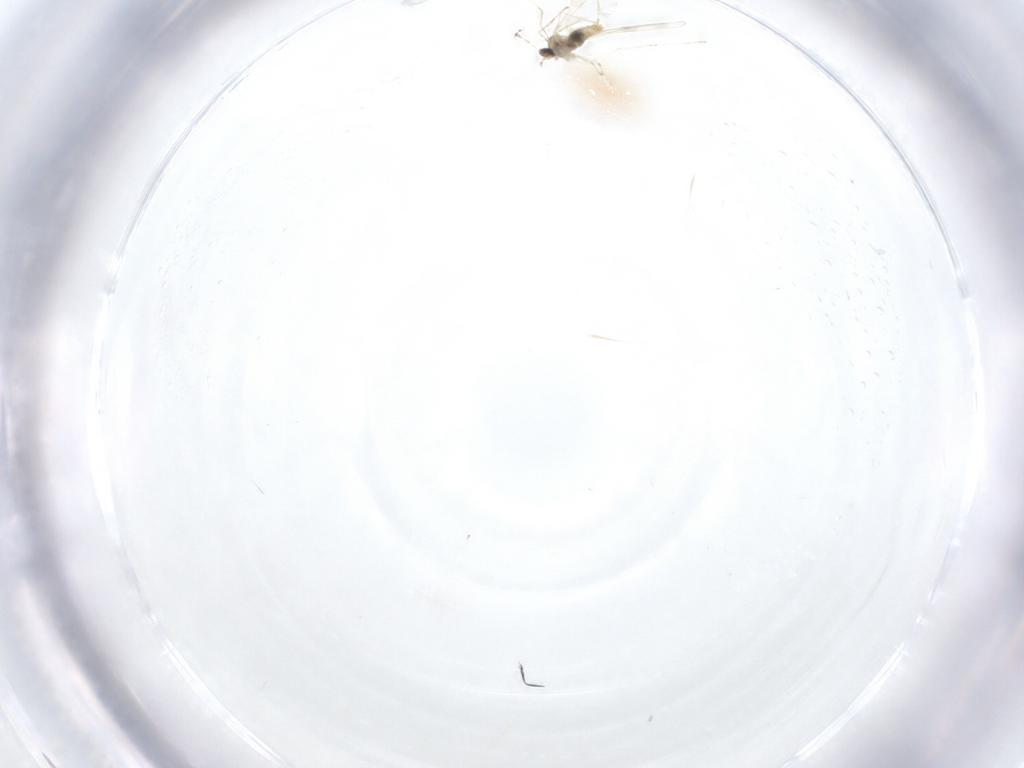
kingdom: Animalia
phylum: Arthropoda
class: Insecta
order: Diptera
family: Cecidomyiidae
